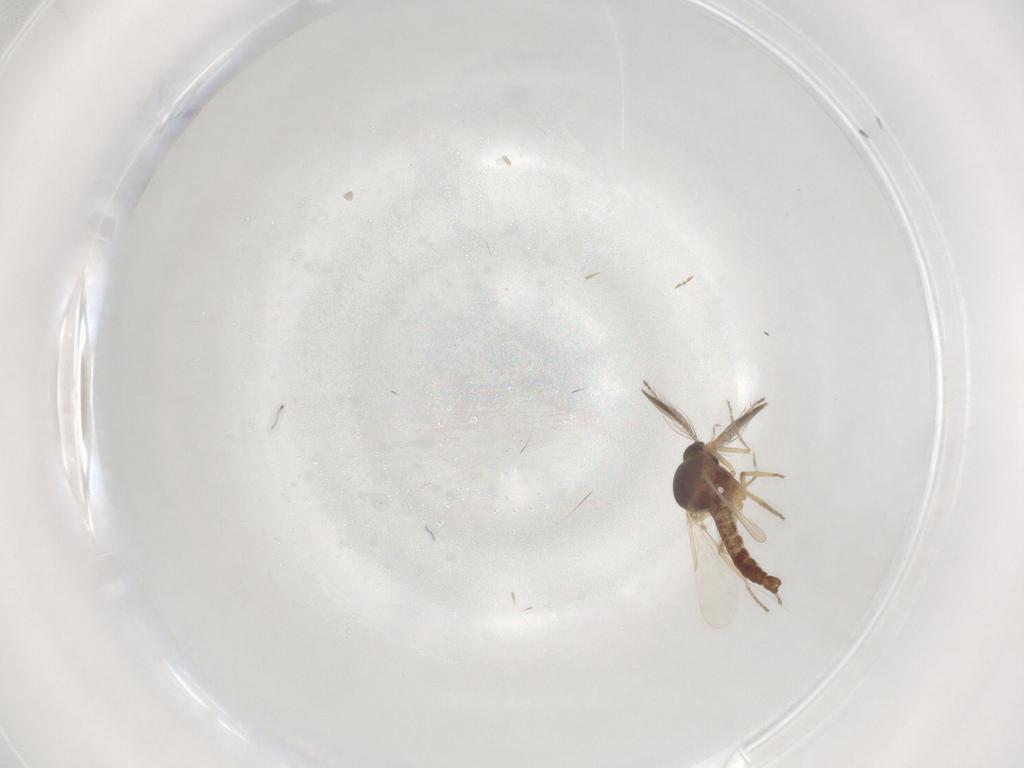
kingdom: Animalia
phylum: Arthropoda
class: Insecta
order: Diptera
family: Ceratopogonidae
